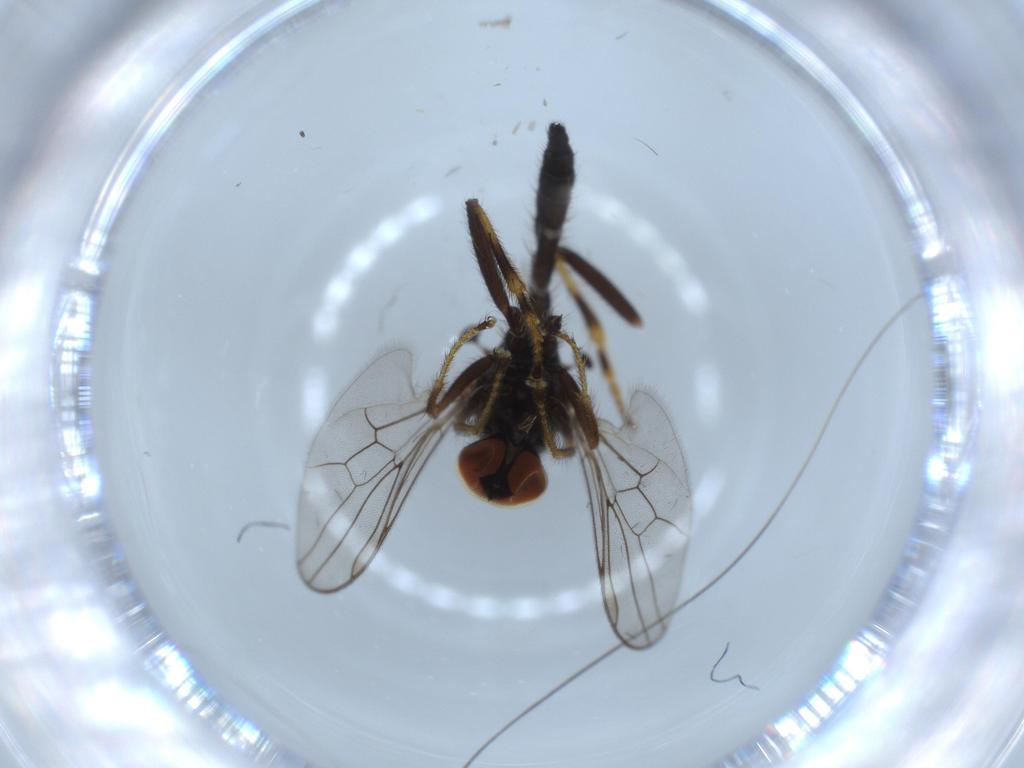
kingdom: Animalia
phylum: Arthropoda
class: Insecta
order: Diptera
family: Hybotidae
